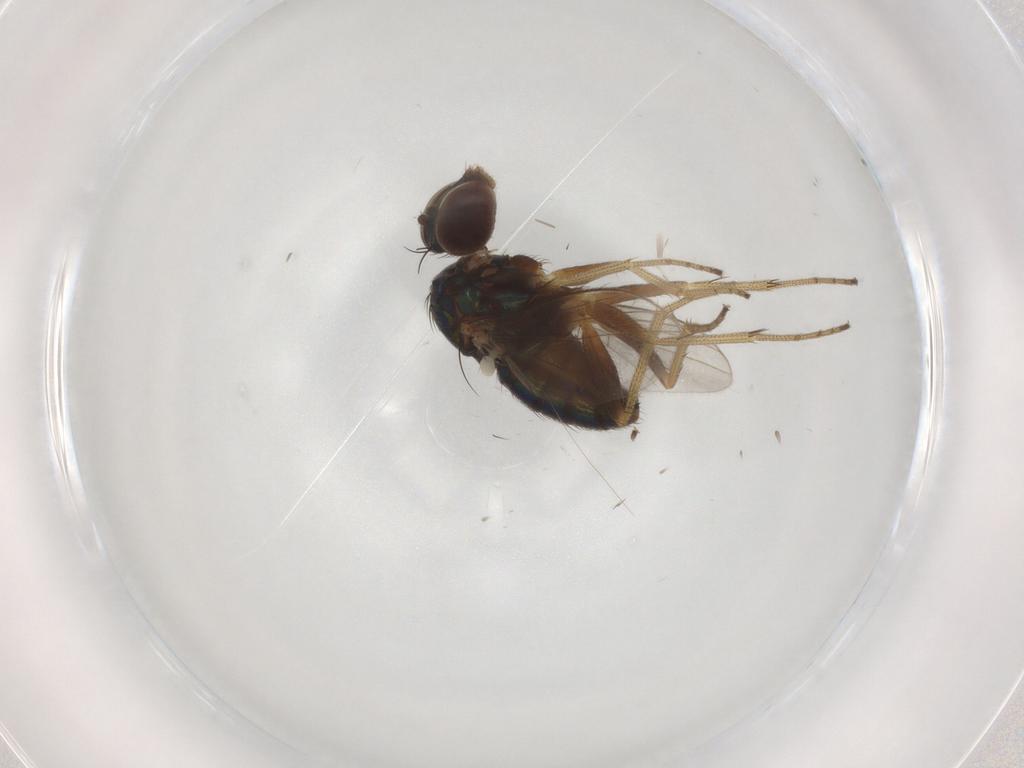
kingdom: Animalia
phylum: Arthropoda
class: Insecta
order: Diptera
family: Dolichopodidae
